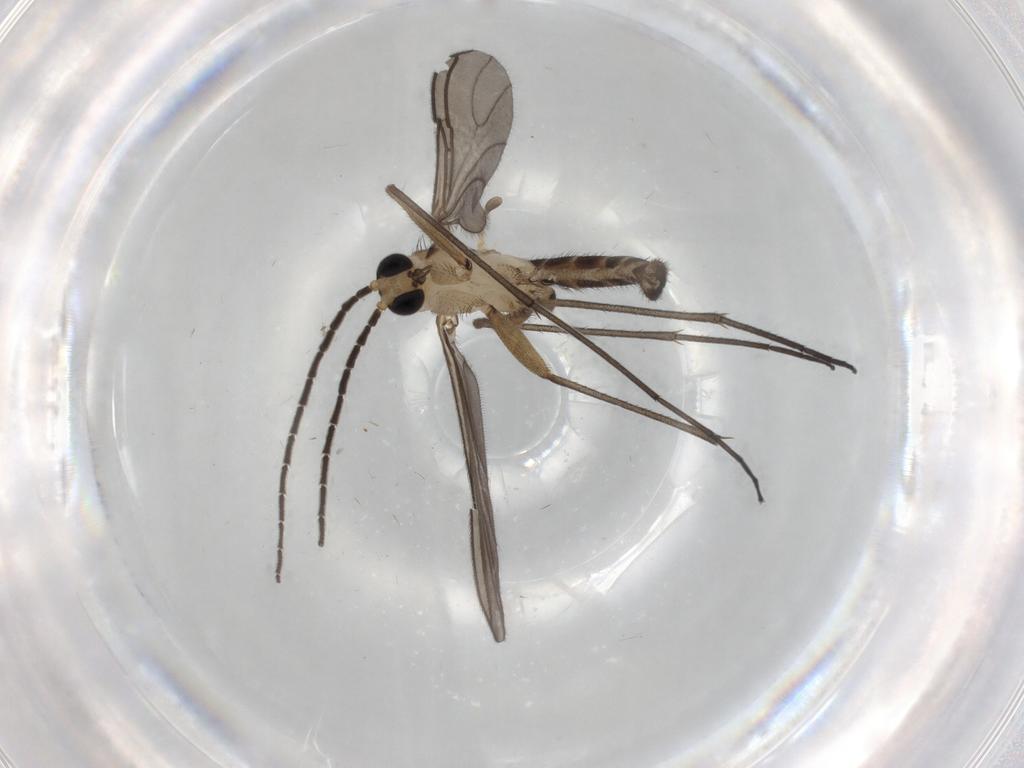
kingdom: Animalia
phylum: Arthropoda
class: Insecta
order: Diptera
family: Sciaridae
